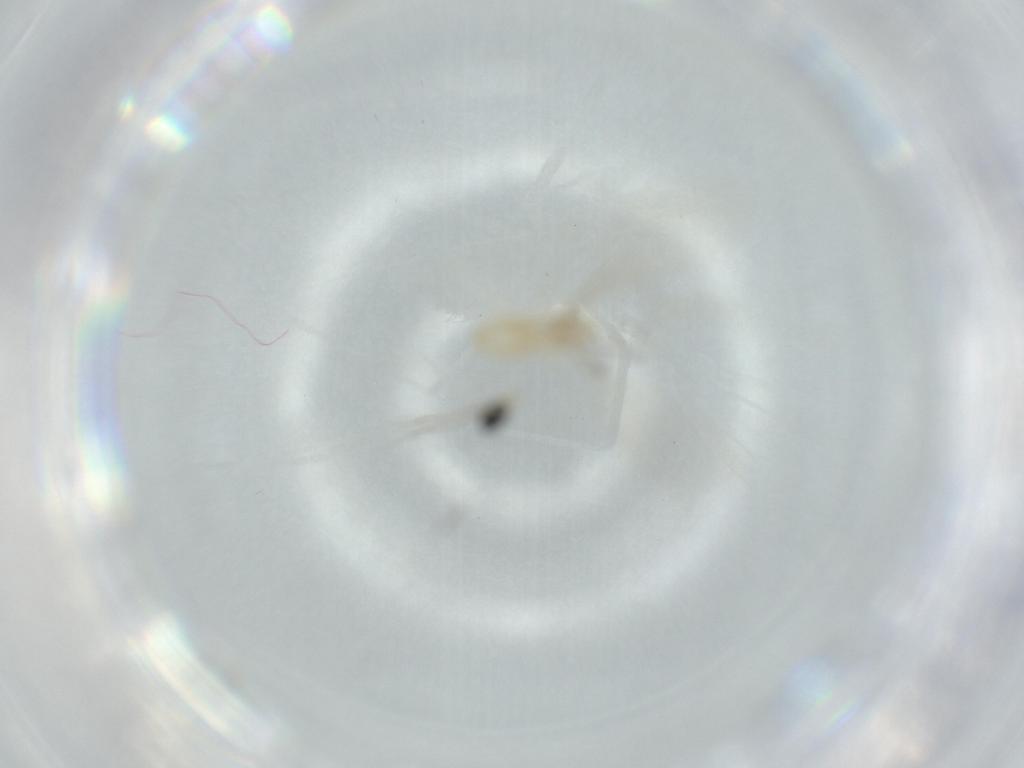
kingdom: Animalia
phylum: Arthropoda
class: Insecta
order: Diptera
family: Cecidomyiidae
